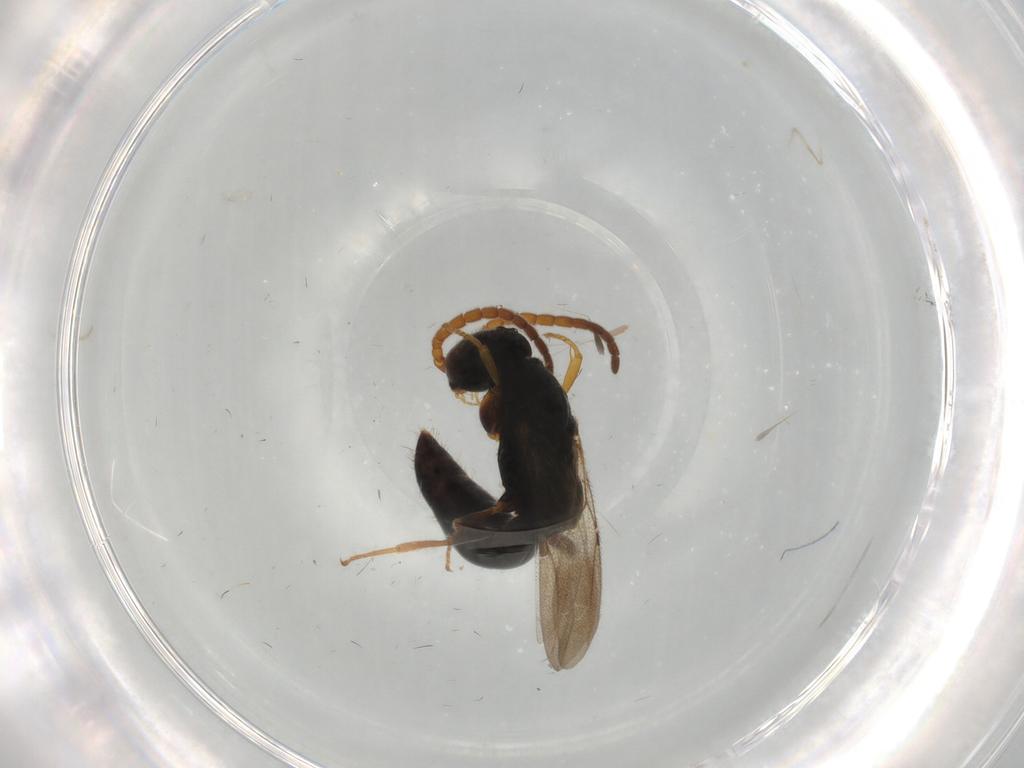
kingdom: Animalia
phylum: Arthropoda
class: Insecta
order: Hymenoptera
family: Bethylidae
